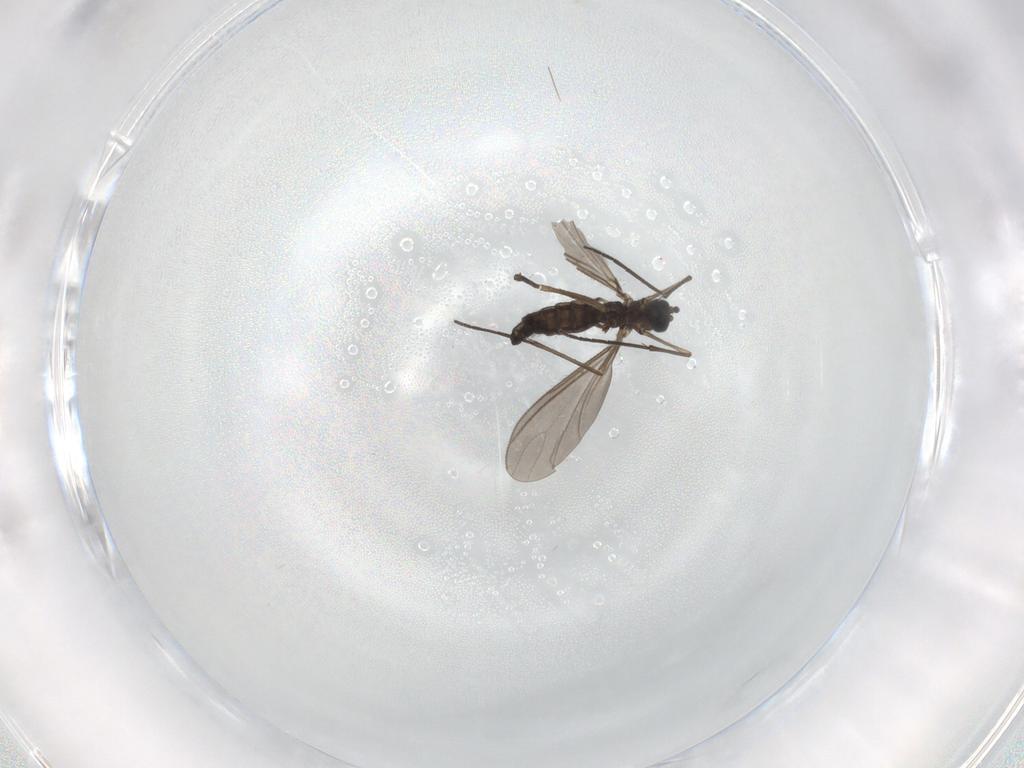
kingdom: Animalia
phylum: Arthropoda
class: Insecta
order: Diptera
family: Sciaridae
